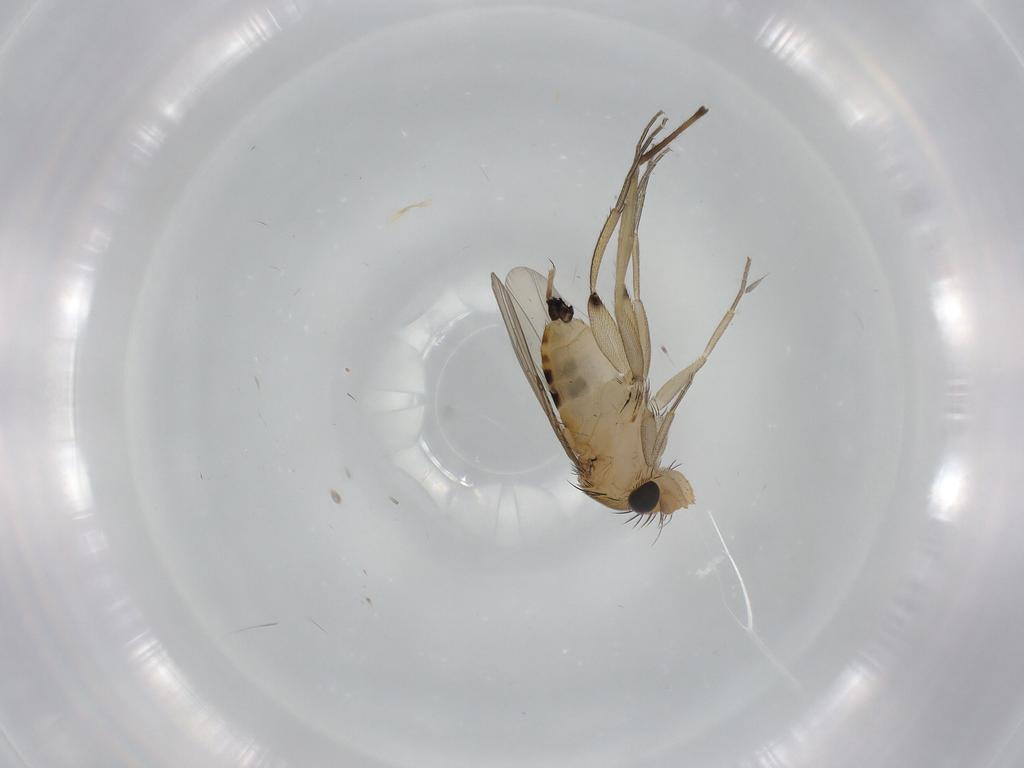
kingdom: Animalia
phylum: Arthropoda
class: Insecta
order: Diptera
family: Phoridae
